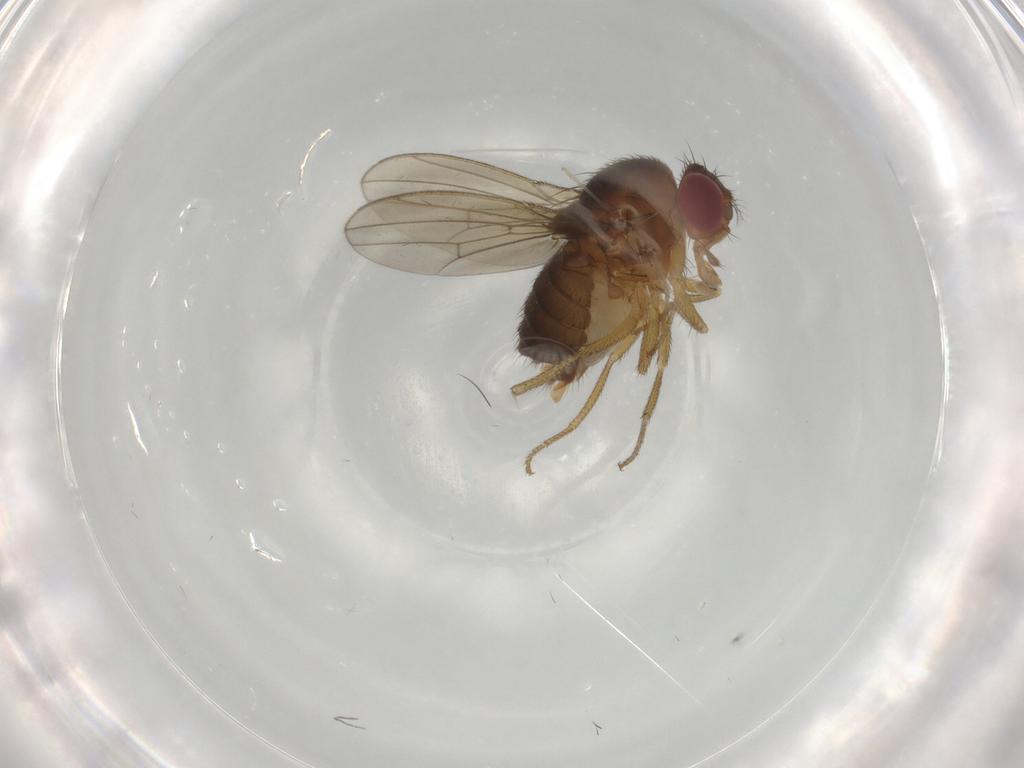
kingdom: Animalia
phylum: Arthropoda
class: Insecta
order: Diptera
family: Drosophilidae
